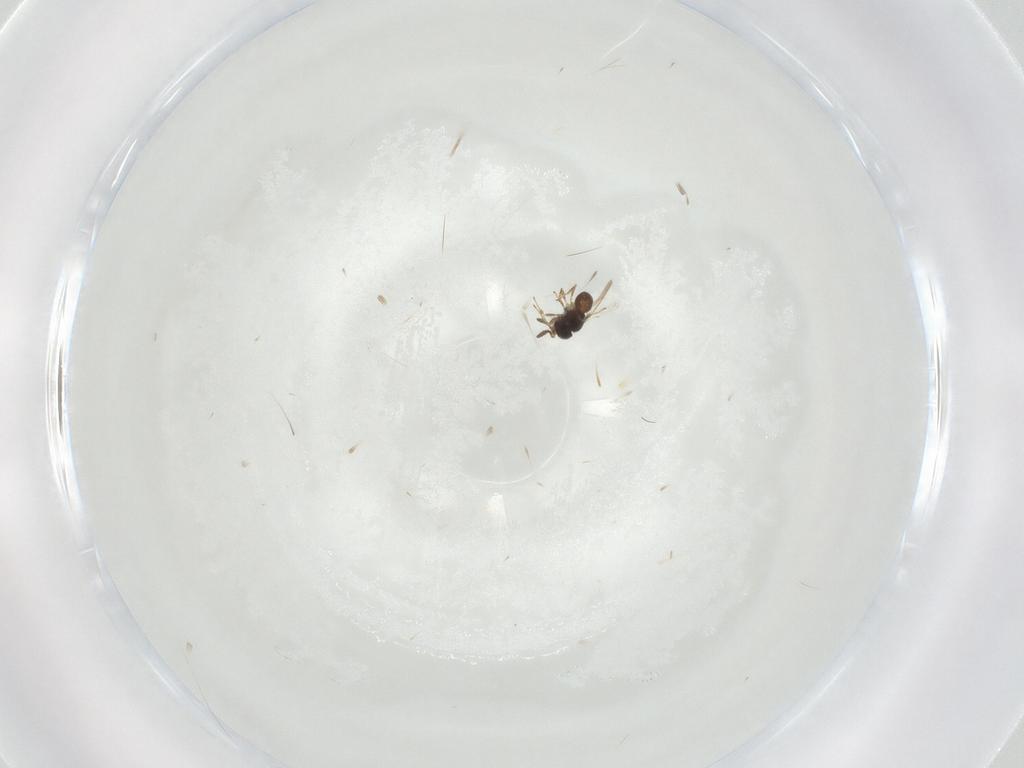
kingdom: Animalia
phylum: Arthropoda
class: Insecta
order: Hymenoptera
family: Scelionidae
